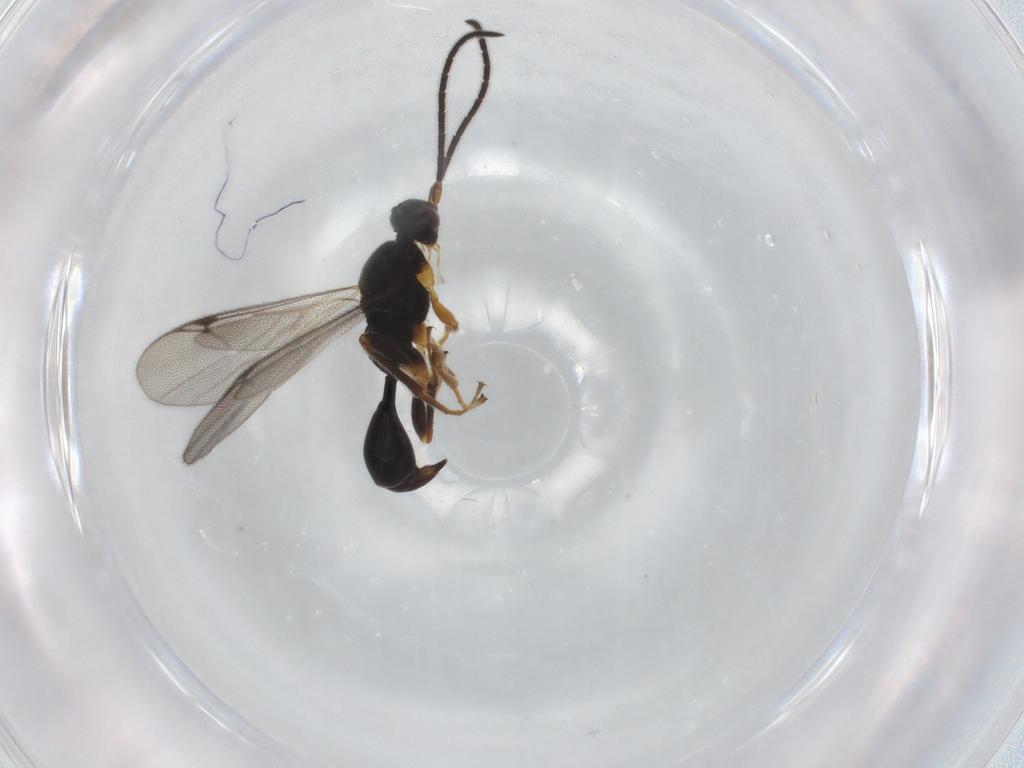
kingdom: Animalia
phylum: Arthropoda
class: Insecta
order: Hymenoptera
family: Proctotrupidae
